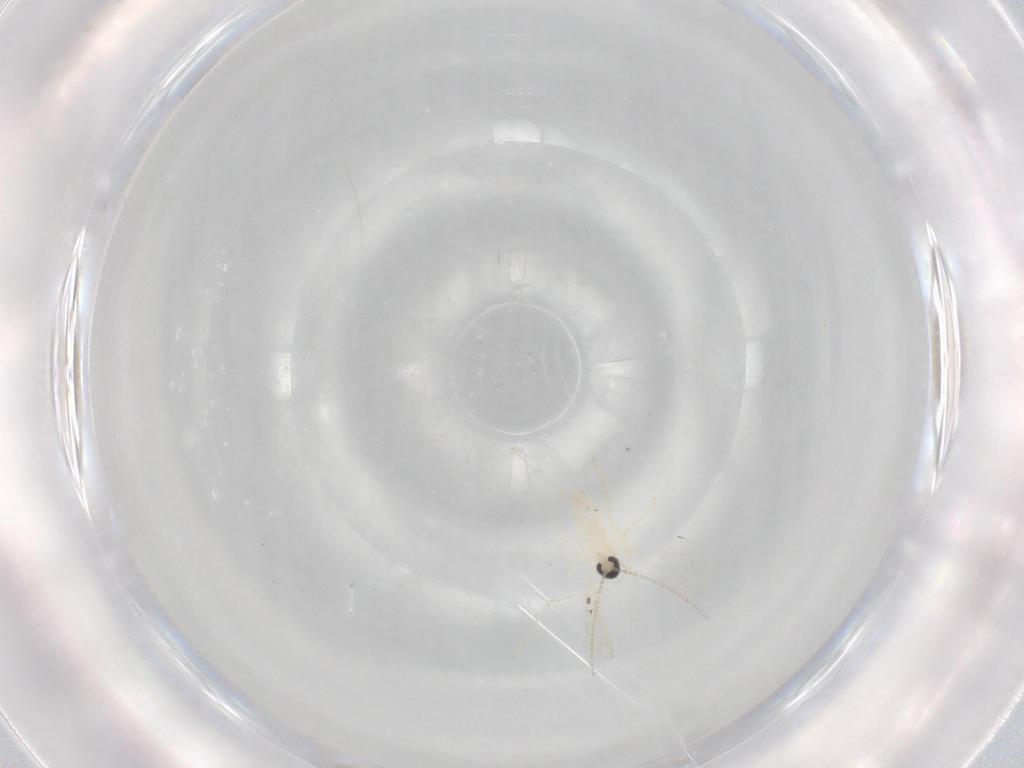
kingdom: Animalia
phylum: Arthropoda
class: Insecta
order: Diptera
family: Cecidomyiidae
